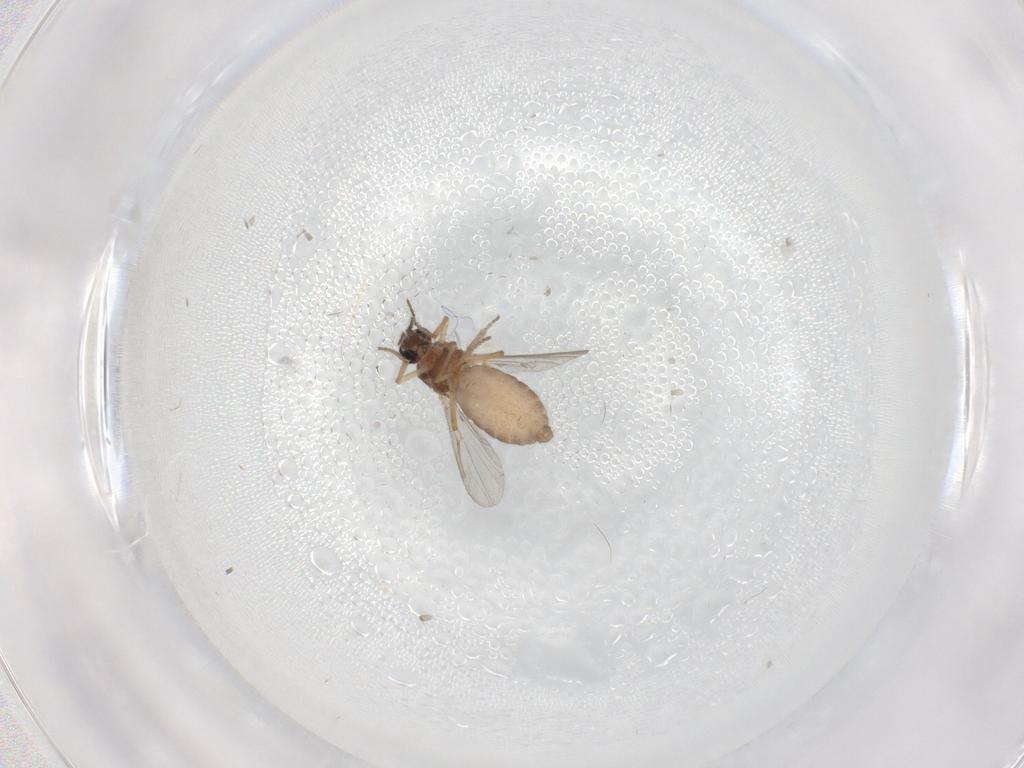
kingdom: Animalia
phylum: Arthropoda
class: Insecta
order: Diptera
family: Ceratopogonidae
